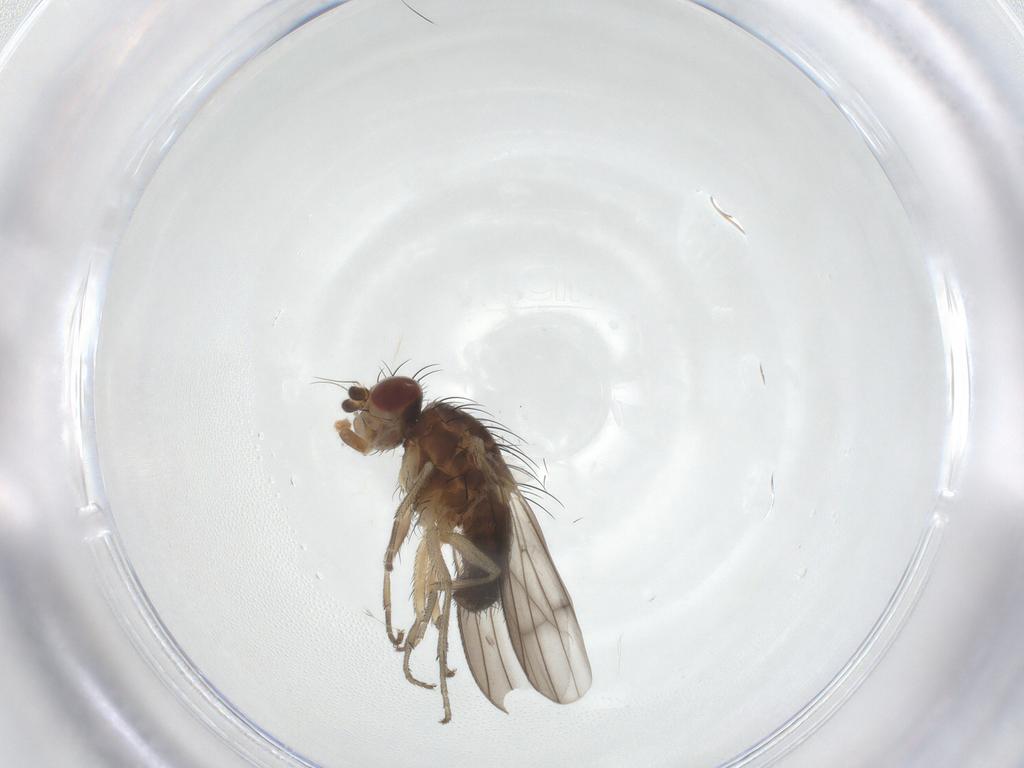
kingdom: Animalia
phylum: Arthropoda
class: Insecta
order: Diptera
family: Heleomyzidae
